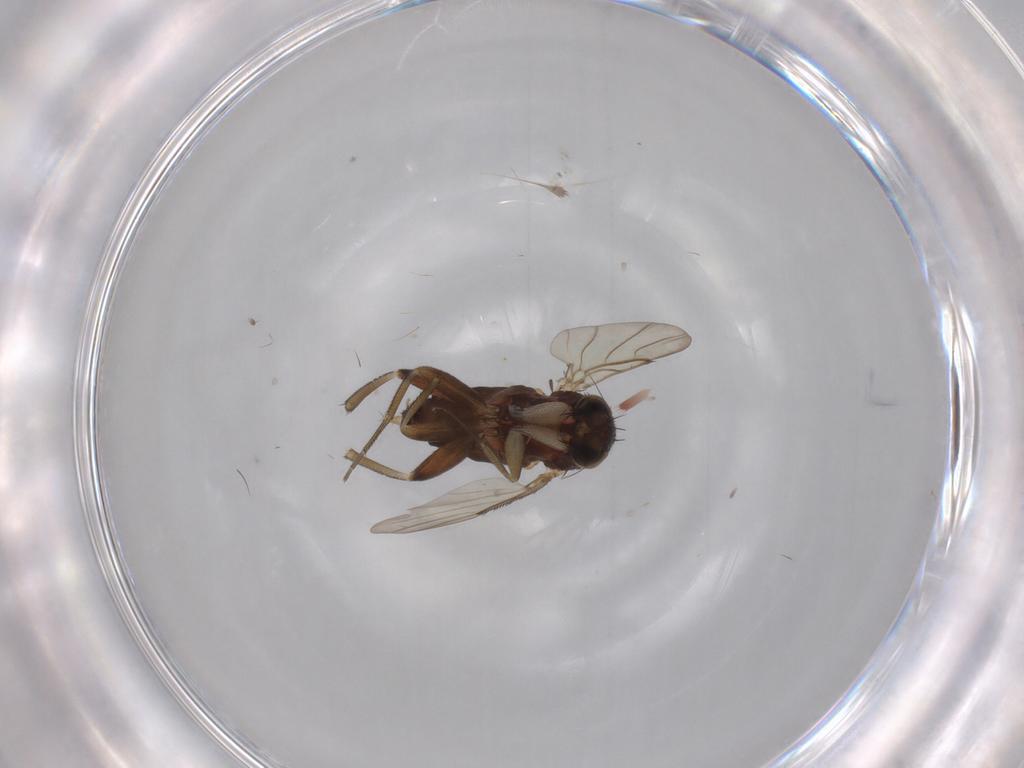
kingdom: Animalia
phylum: Arthropoda
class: Insecta
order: Diptera
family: Phoridae
